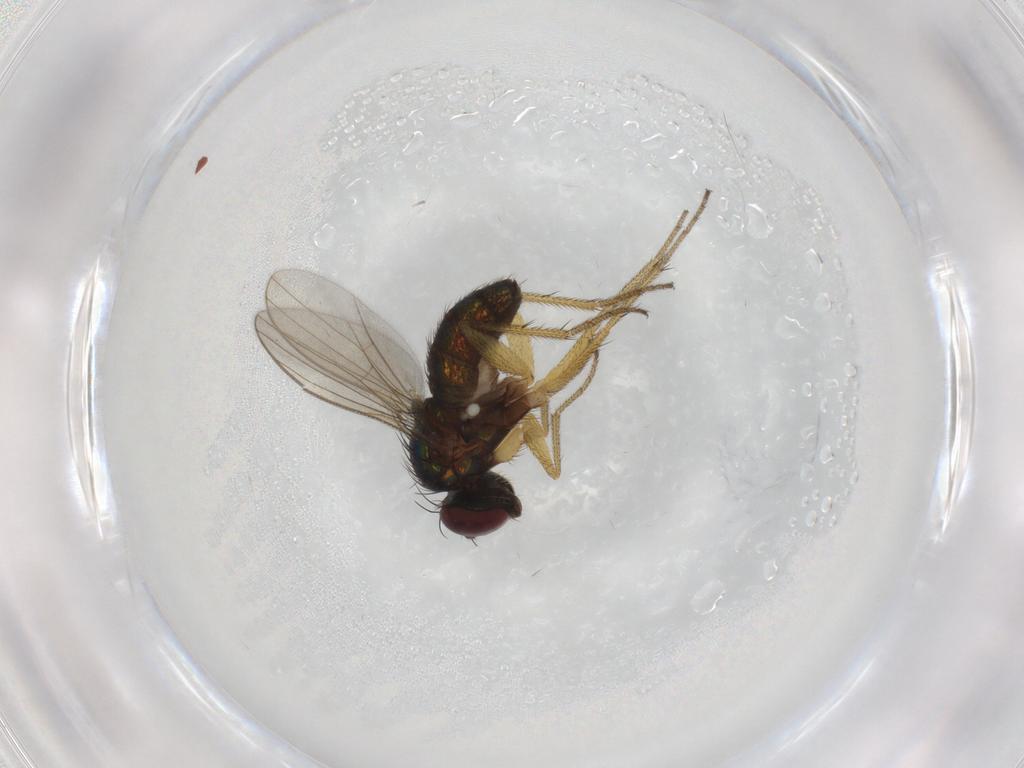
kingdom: Animalia
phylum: Arthropoda
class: Insecta
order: Diptera
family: Dolichopodidae
